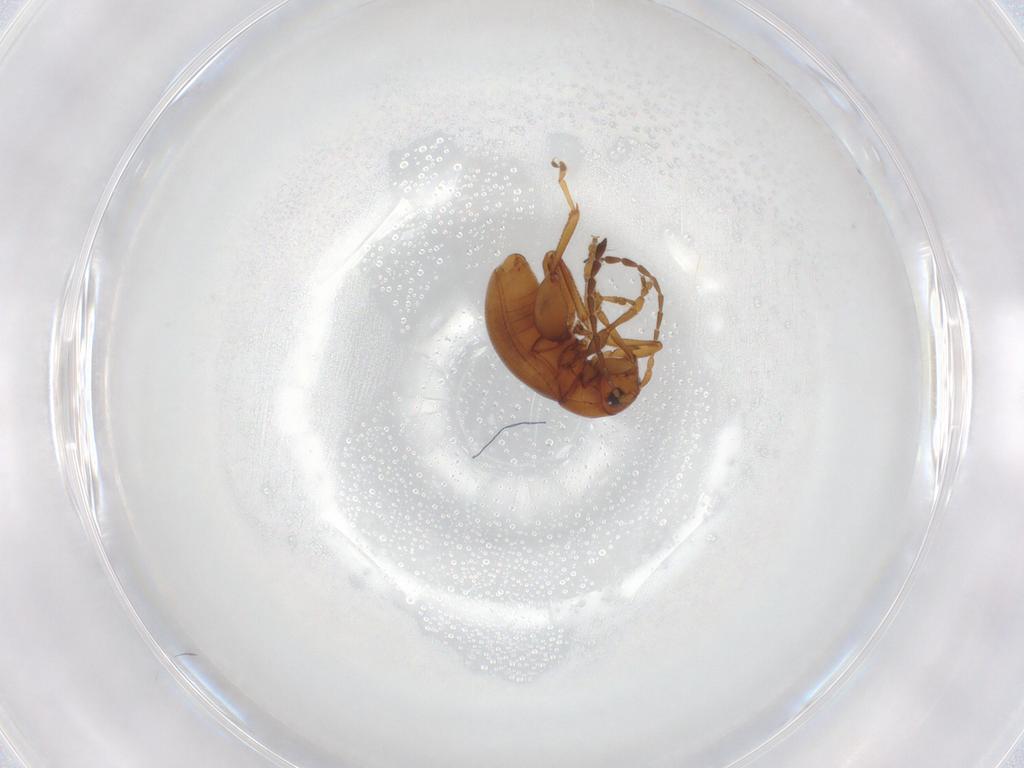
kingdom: Animalia
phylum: Arthropoda
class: Insecta
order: Coleoptera
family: Chrysomelidae
